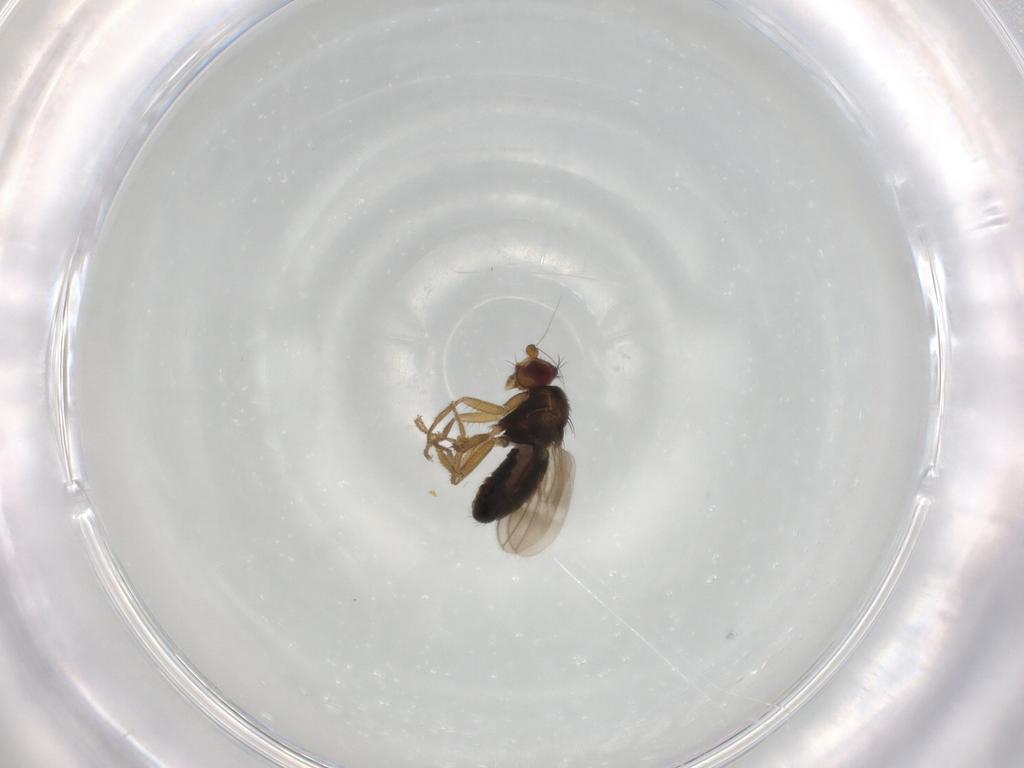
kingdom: Animalia
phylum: Arthropoda
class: Insecta
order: Diptera
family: Sphaeroceridae
